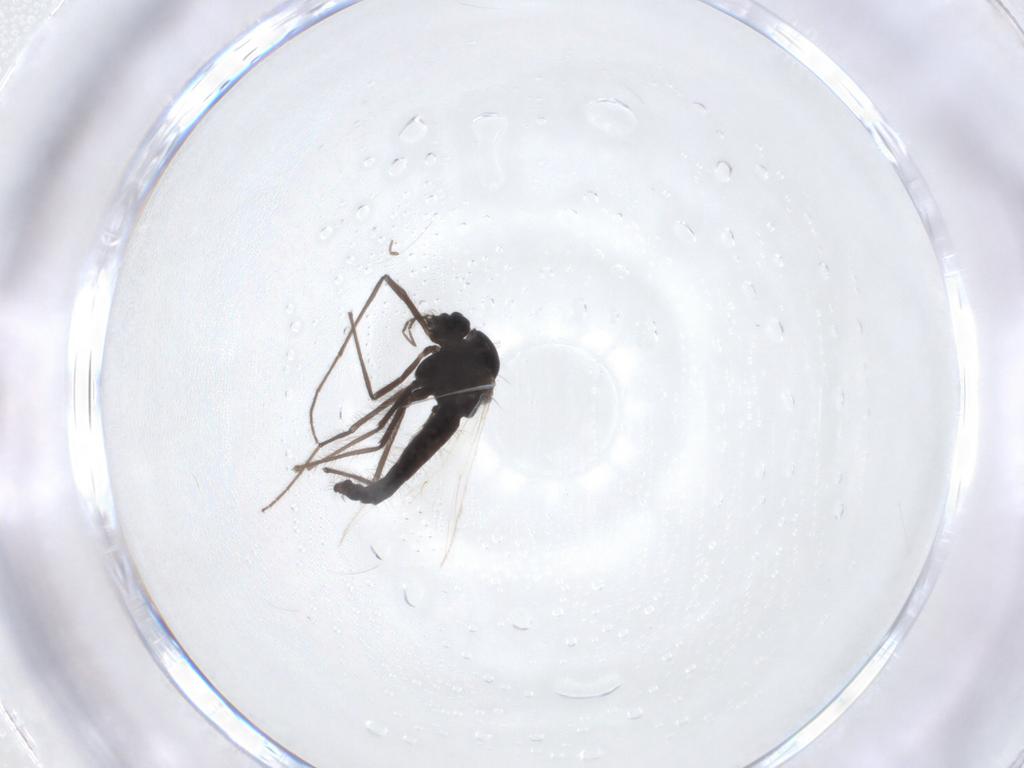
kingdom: Animalia
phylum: Arthropoda
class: Insecta
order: Diptera
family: Chironomidae
